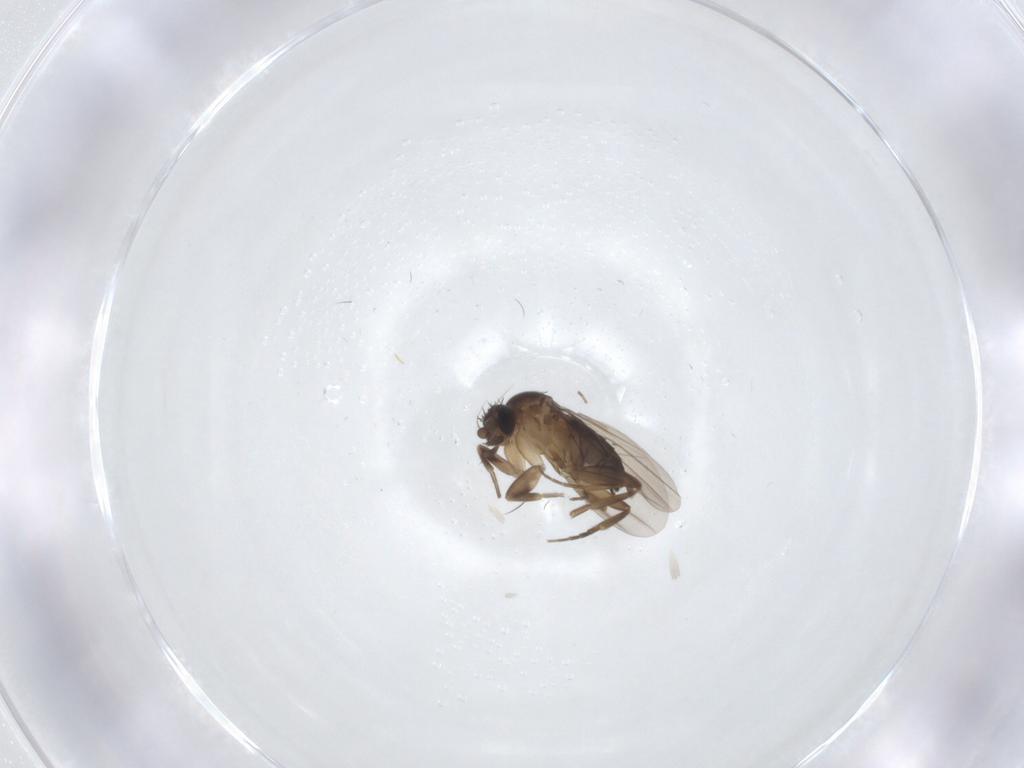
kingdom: Animalia
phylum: Arthropoda
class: Insecta
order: Diptera
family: Phoridae
